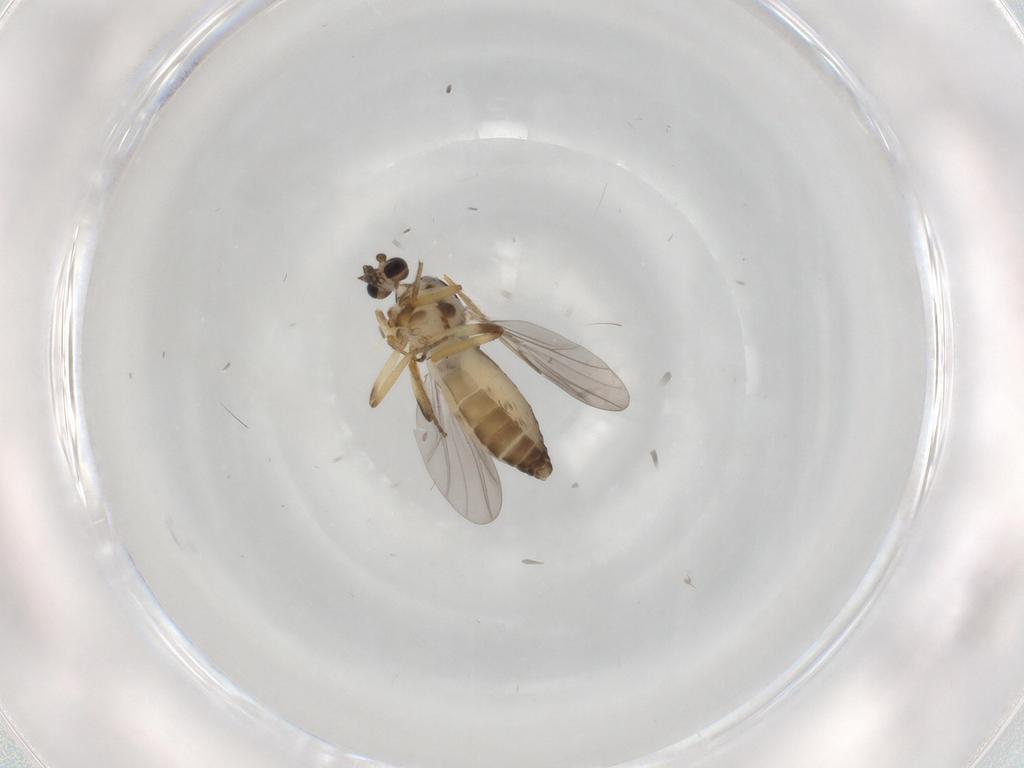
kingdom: Animalia
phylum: Arthropoda
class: Insecta
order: Diptera
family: Ceratopogonidae
